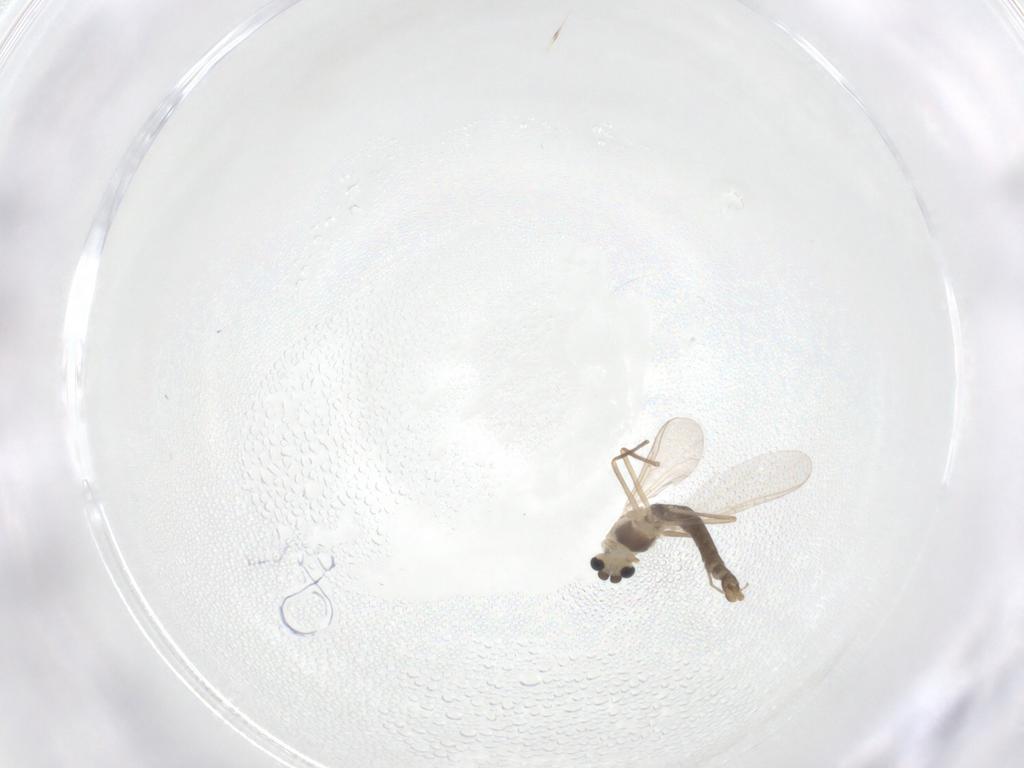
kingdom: Animalia
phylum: Arthropoda
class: Insecta
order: Diptera
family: Chironomidae
